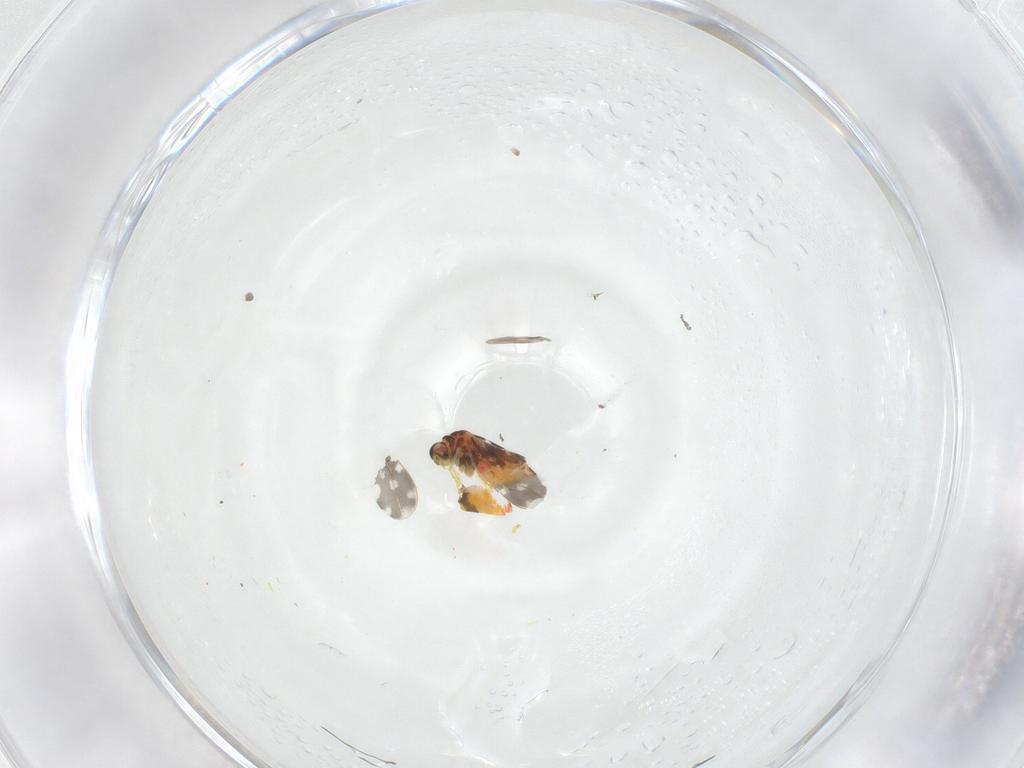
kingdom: Animalia
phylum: Arthropoda
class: Insecta
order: Hemiptera
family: Aleyrodidae
